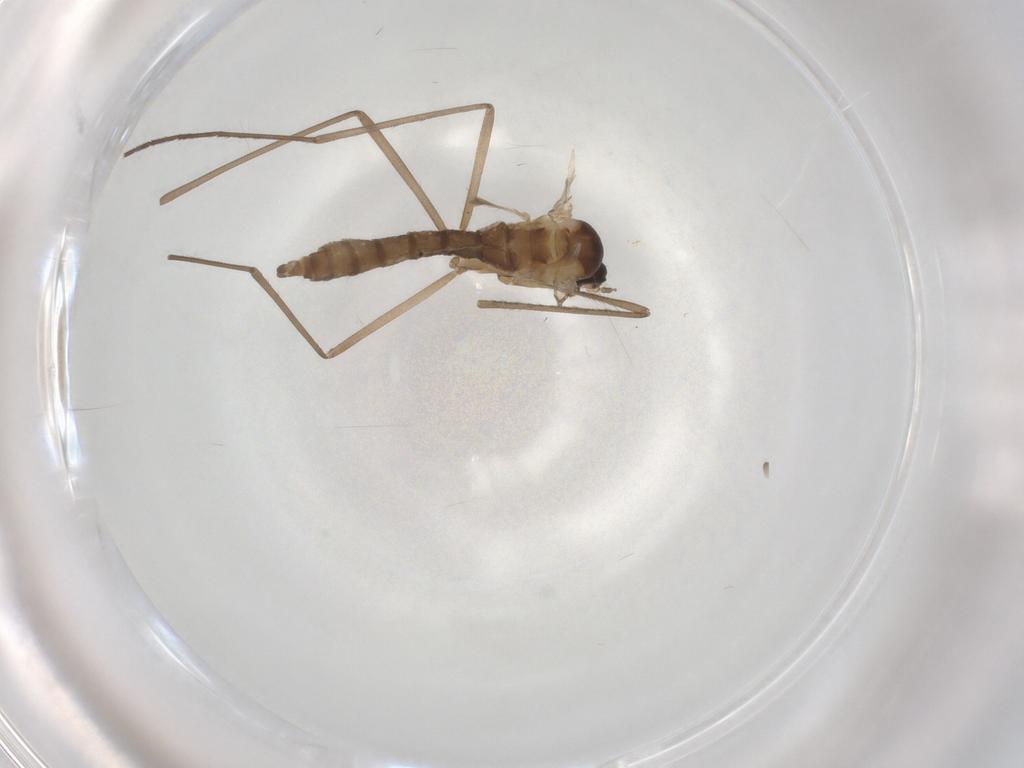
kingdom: Animalia
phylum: Arthropoda
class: Insecta
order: Diptera
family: Cecidomyiidae
